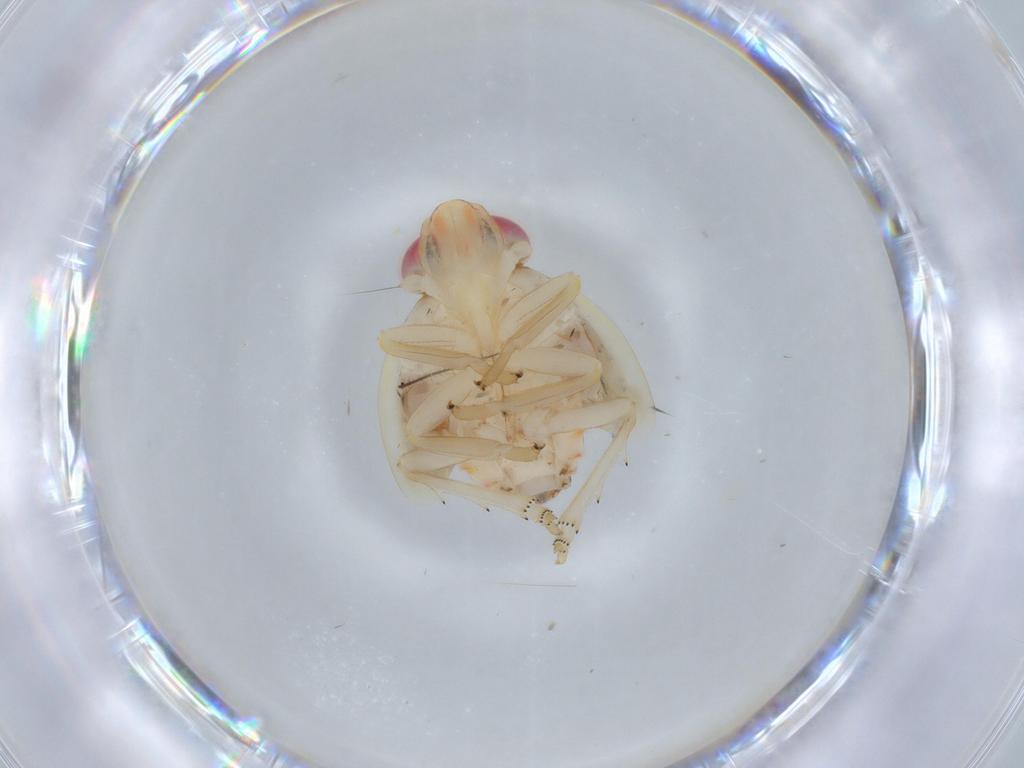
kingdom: Animalia
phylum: Arthropoda
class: Insecta
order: Hemiptera
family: Nogodinidae
